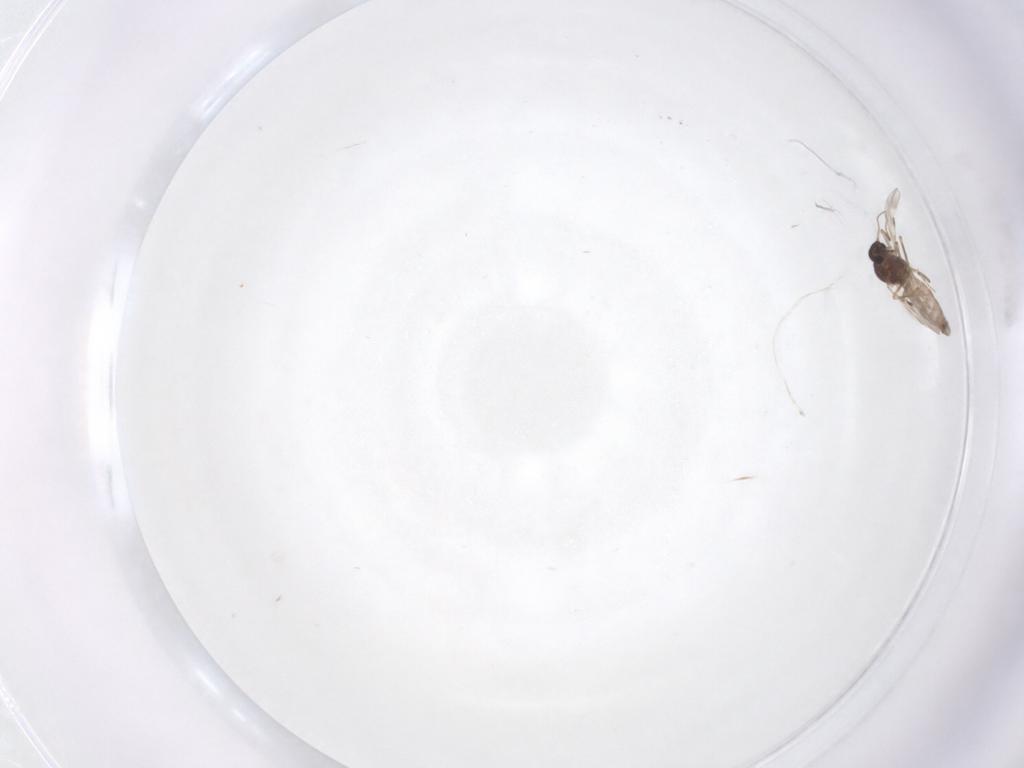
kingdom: Animalia
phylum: Arthropoda
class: Insecta
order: Diptera
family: Phoridae
